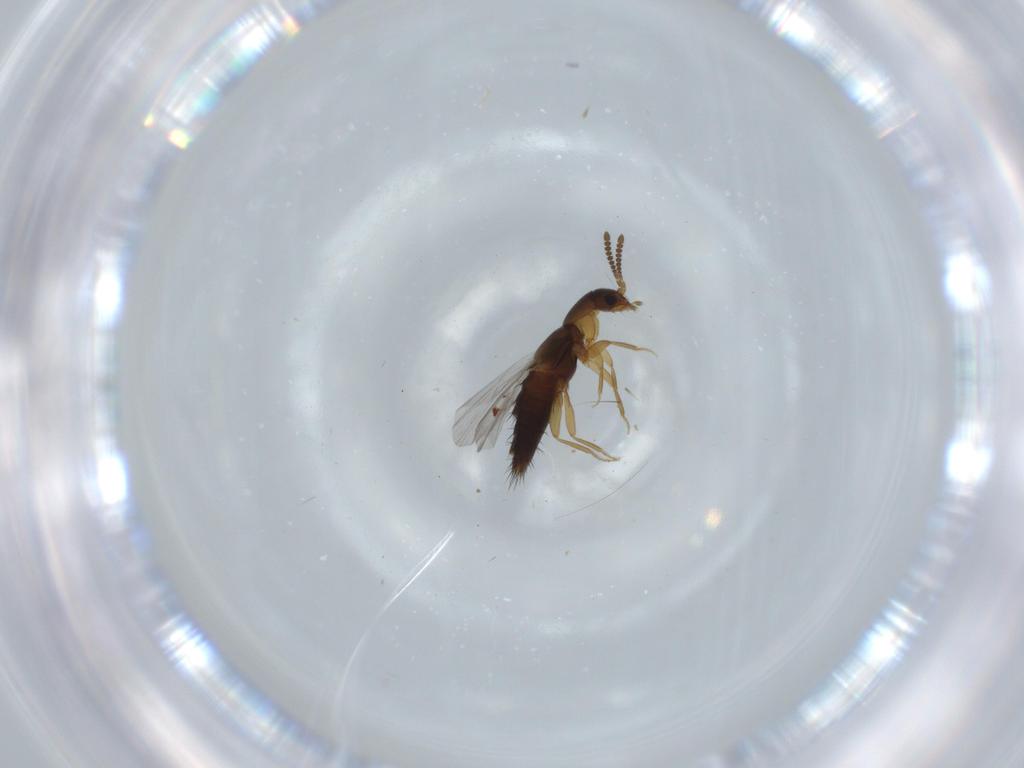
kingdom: Animalia
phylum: Arthropoda
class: Insecta
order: Coleoptera
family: Staphylinidae
